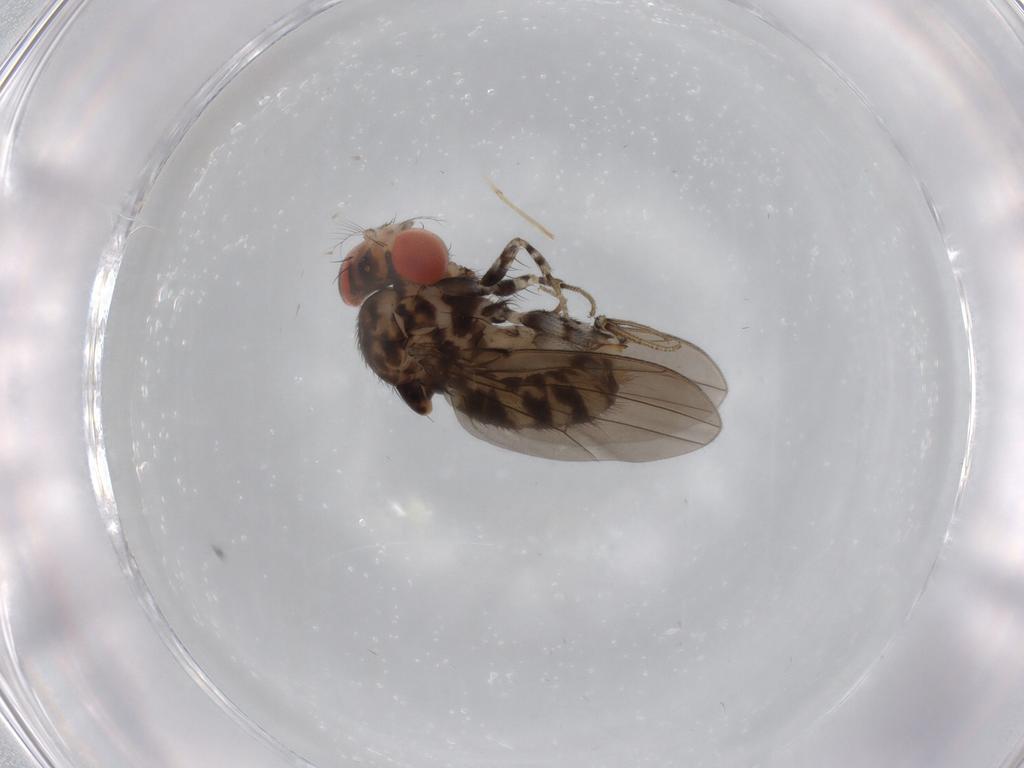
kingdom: Animalia
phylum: Arthropoda
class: Insecta
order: Diptera
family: Drosophilidae
